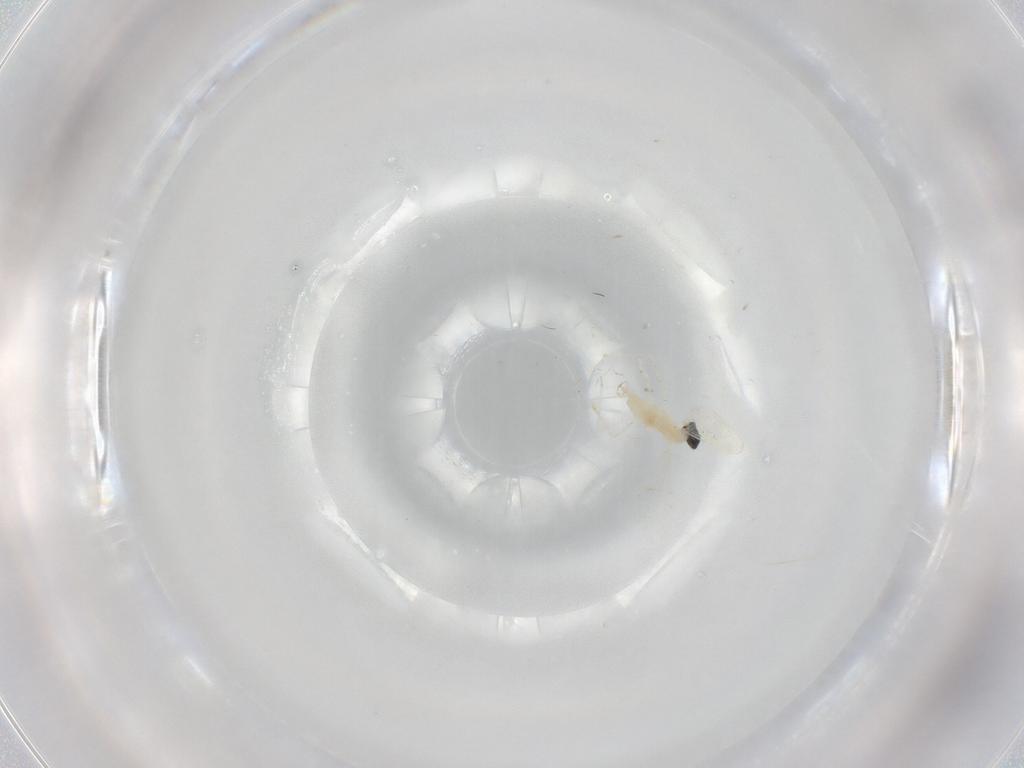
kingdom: Animalia
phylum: Arthropoda
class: Insecta
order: Diptera
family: Cecidomyiidae
